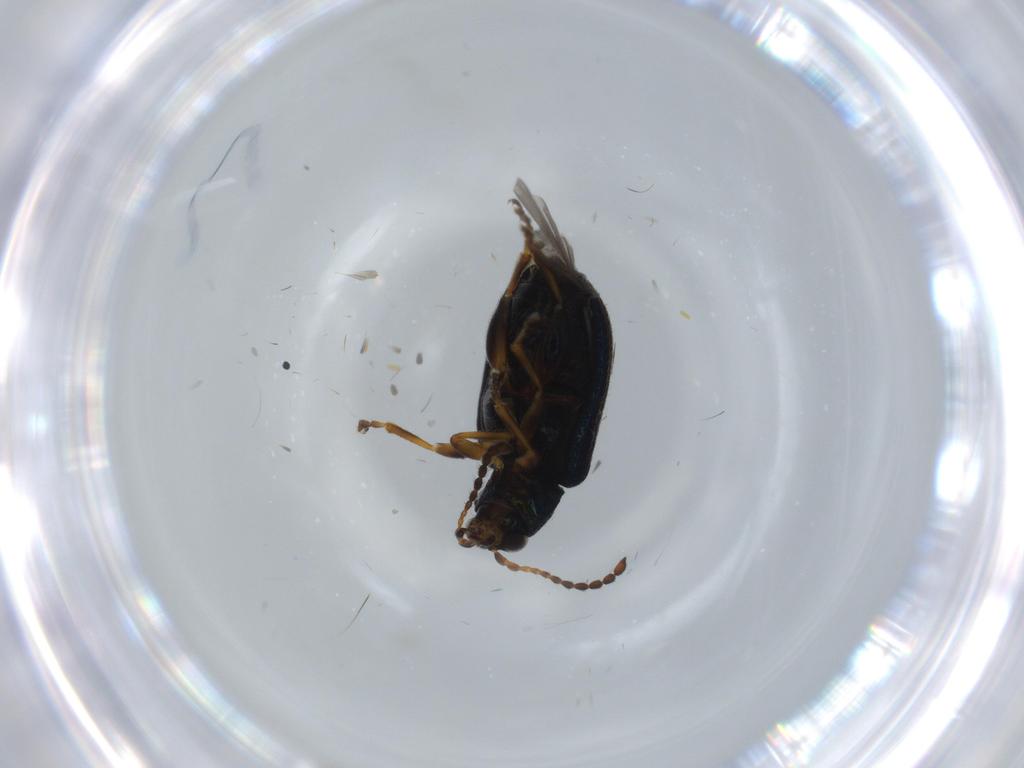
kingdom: Animalia
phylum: Arthropoda
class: Insecta
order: Coleoptera
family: Chrysomelidae
